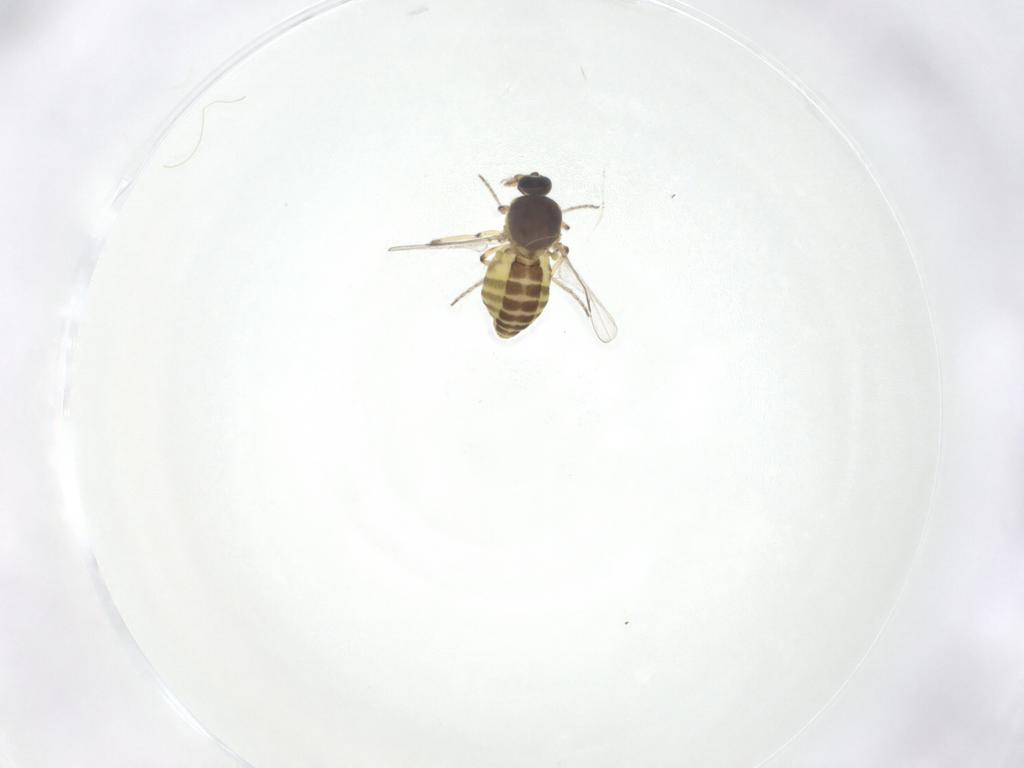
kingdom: Animalia
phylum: Arthropoda
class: Insecta
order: Diptera
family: Ceratopogonidae
